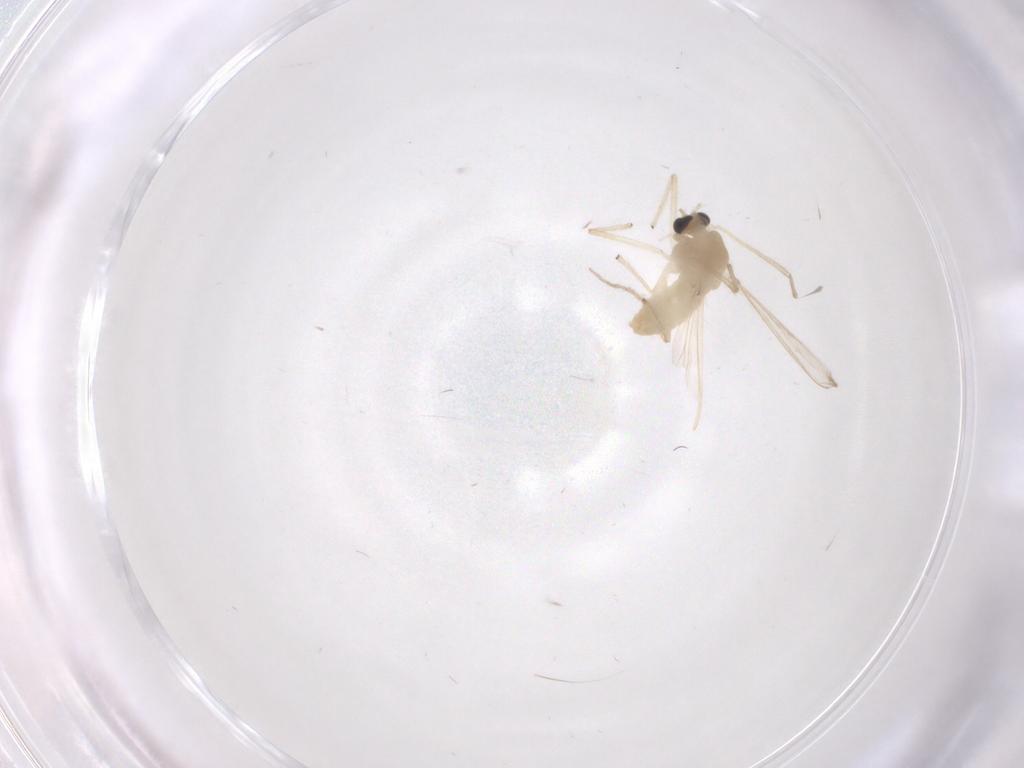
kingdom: Animalia
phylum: Arthropoda
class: Insecta
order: Diptera
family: Chironomidae
